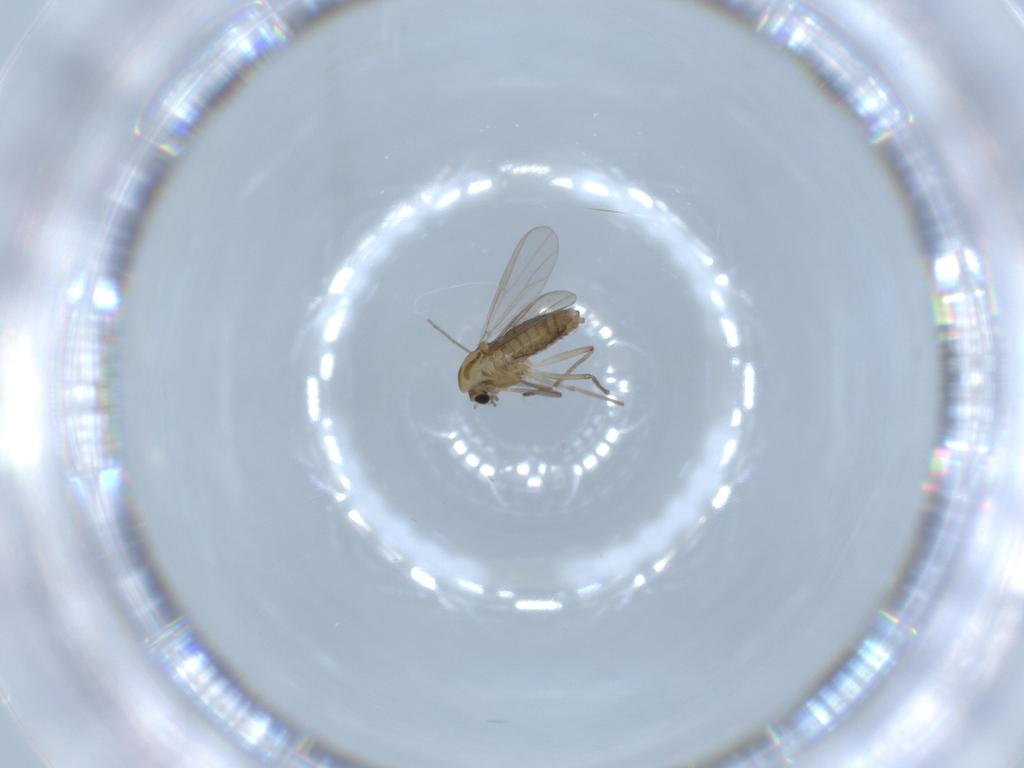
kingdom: Animalia
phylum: Arthropoda
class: Insecta
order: Diptera
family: Chironomidae
